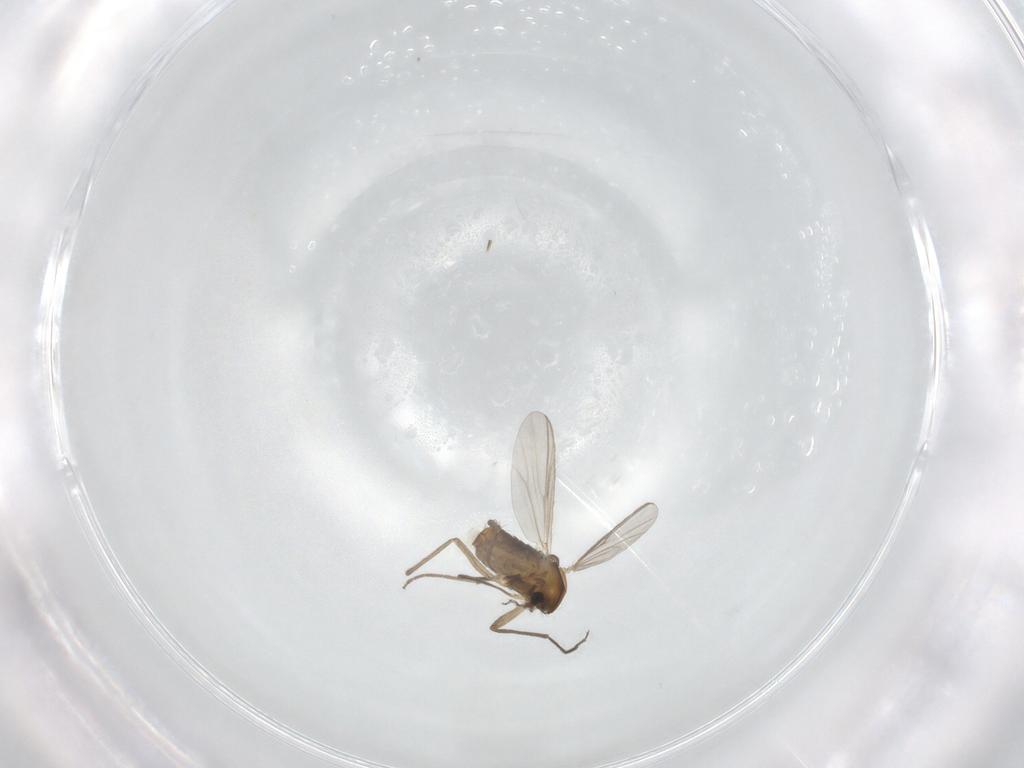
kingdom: Animalia
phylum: Arthropoda
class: Insecta
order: Diptera
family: Chironomidae
